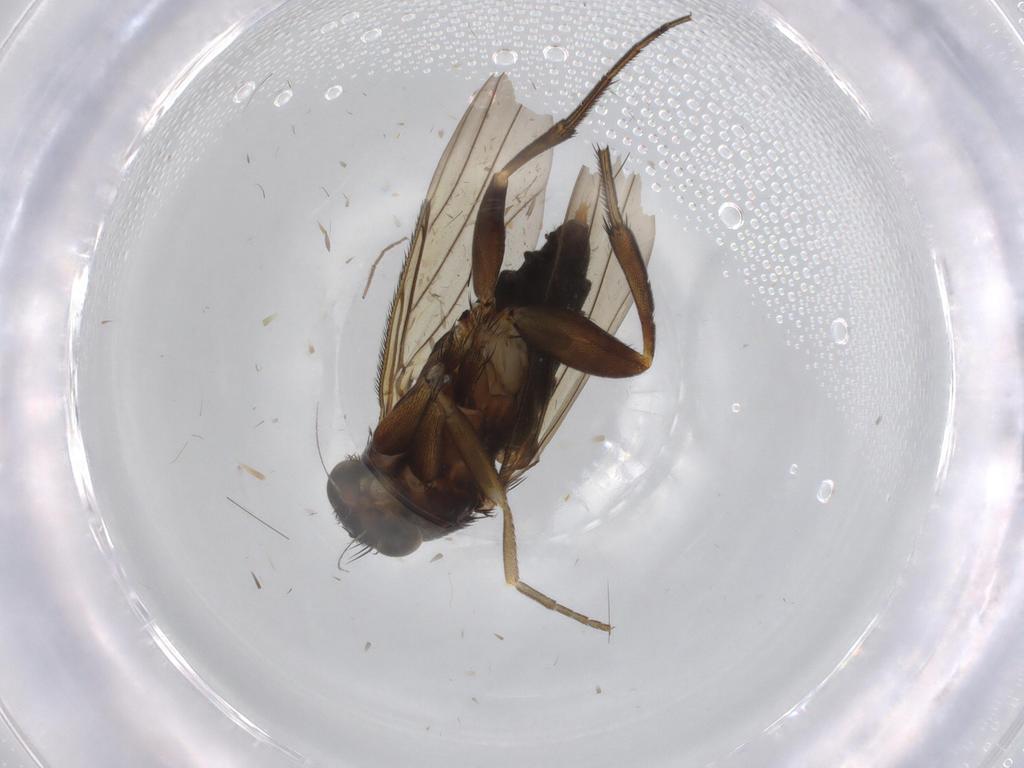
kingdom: Animalia
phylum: Arthropoda
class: Insecta
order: Diptera
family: Phoridae
